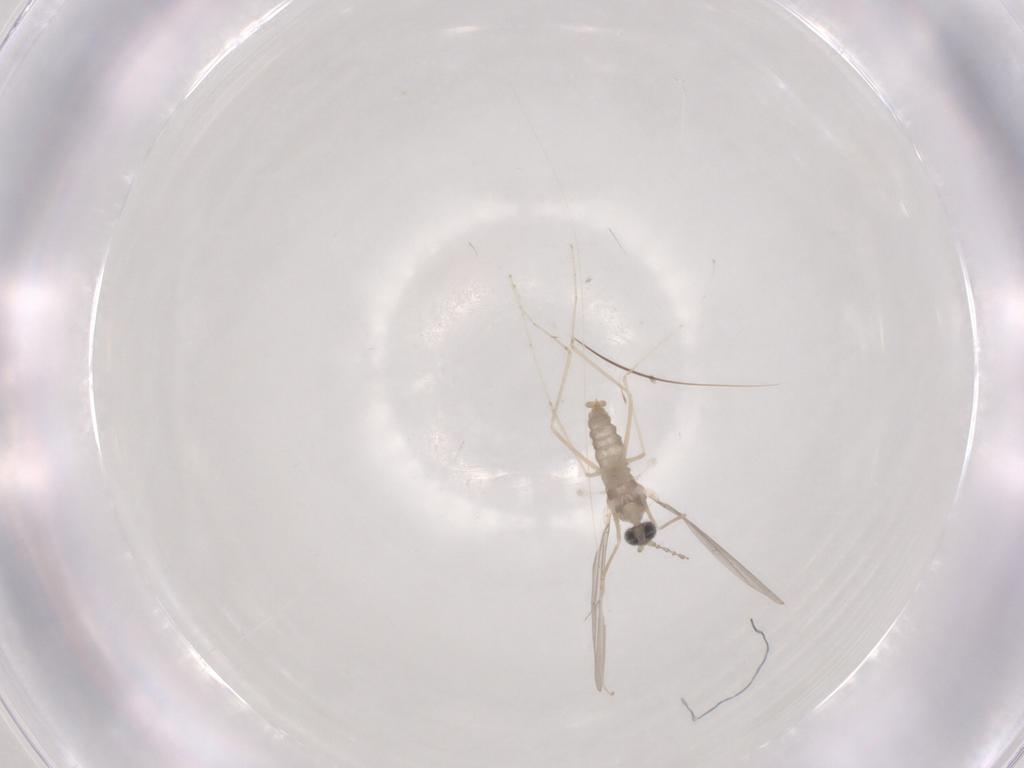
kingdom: Animalia
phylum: Arthropoda
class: Insecta
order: Diptera
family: Cecidomyiidae
